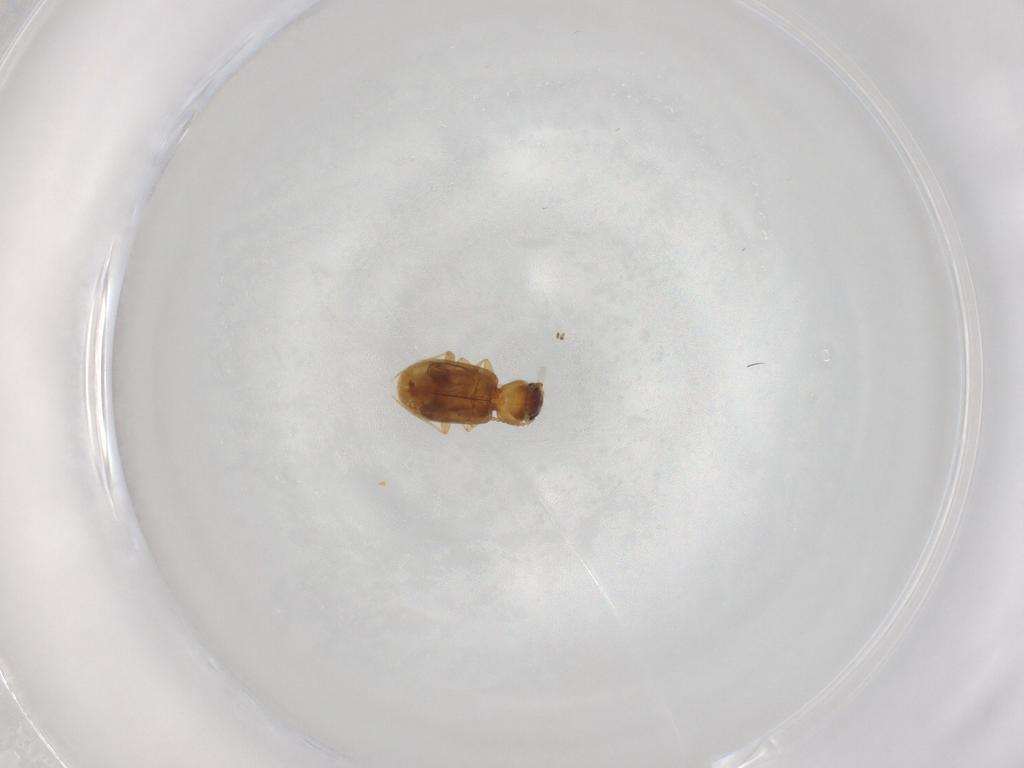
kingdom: Animalia
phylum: Arthropoda
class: Insecta
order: Coleoptera
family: Carabidae
